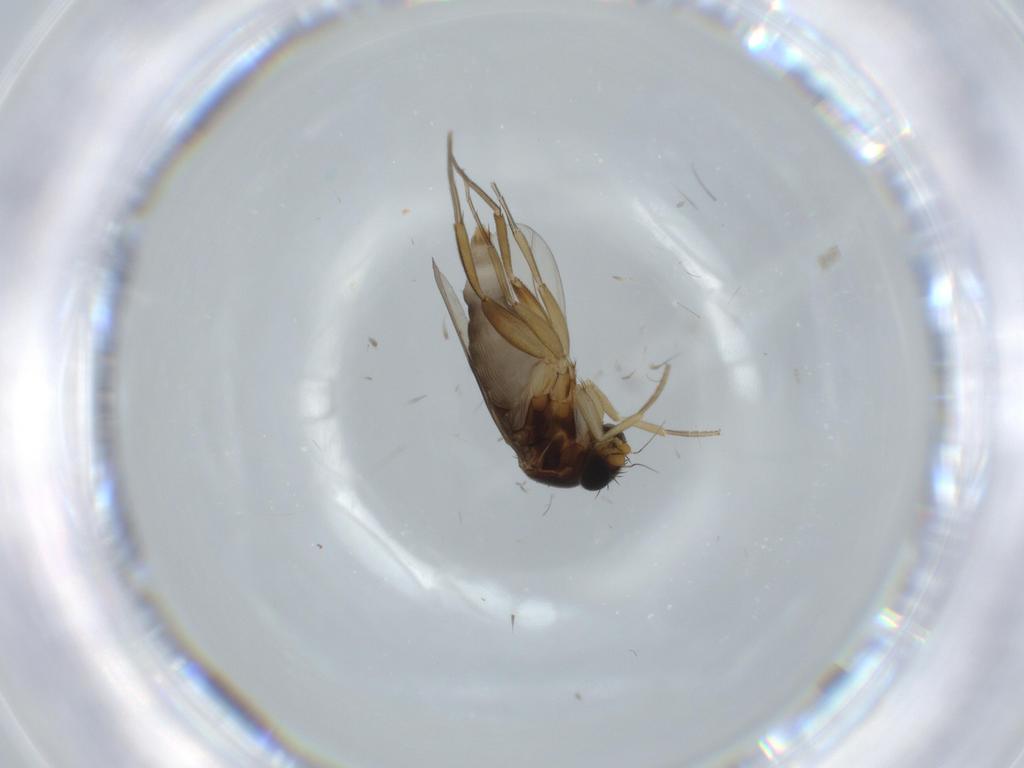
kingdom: Animalia
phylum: Arthropoda
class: Insecta
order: Diptera
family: Phoridae
